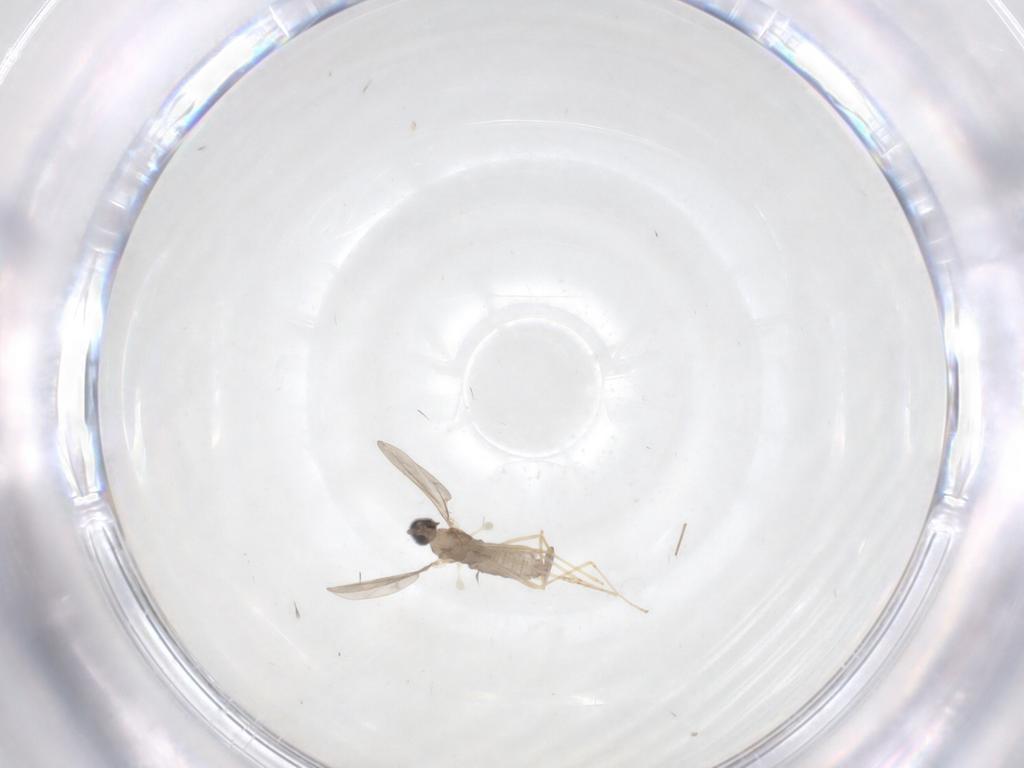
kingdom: Animalia
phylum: Arthropoda
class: Insecta
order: Diptera
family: Cecidomyiidae
